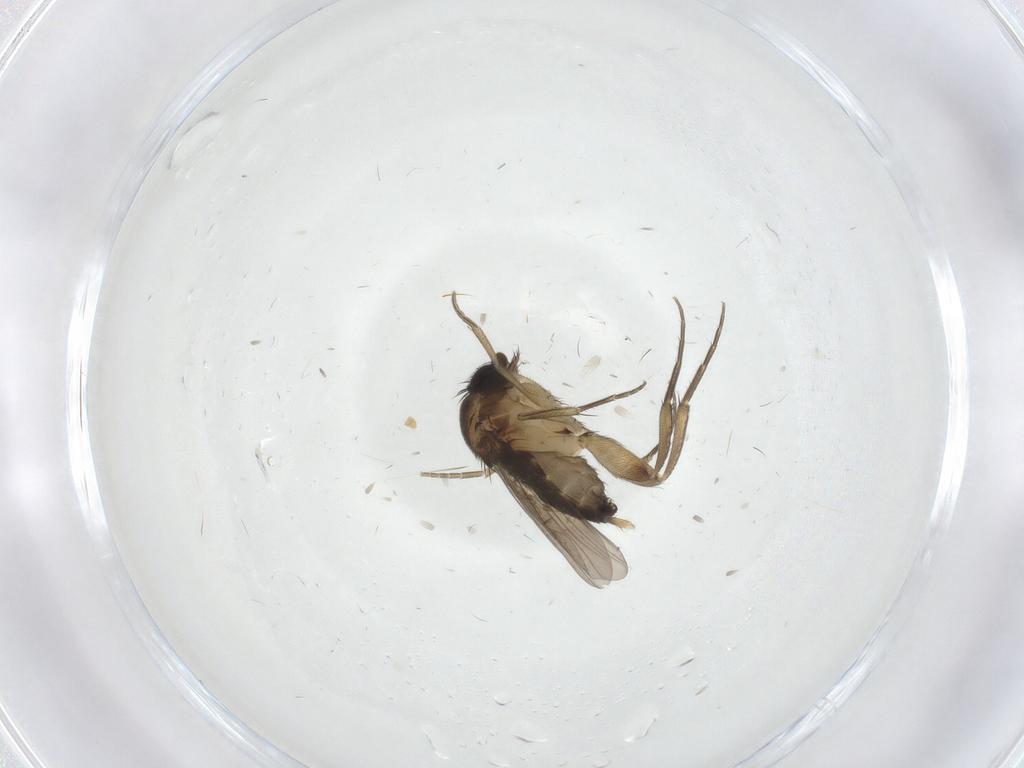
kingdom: Animalia
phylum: Arthropoda
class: Insecta
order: Diptera
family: Phoridae
